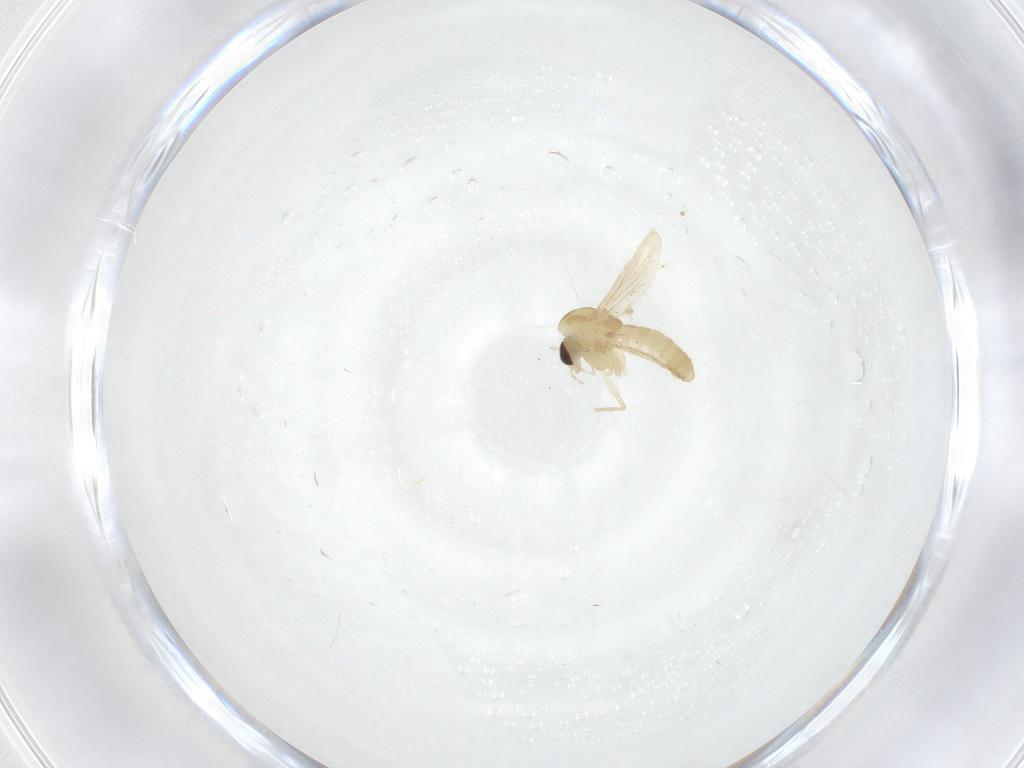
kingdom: Animalia
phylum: Arthropoda
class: Insecta
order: Diptera
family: Chironomidae
